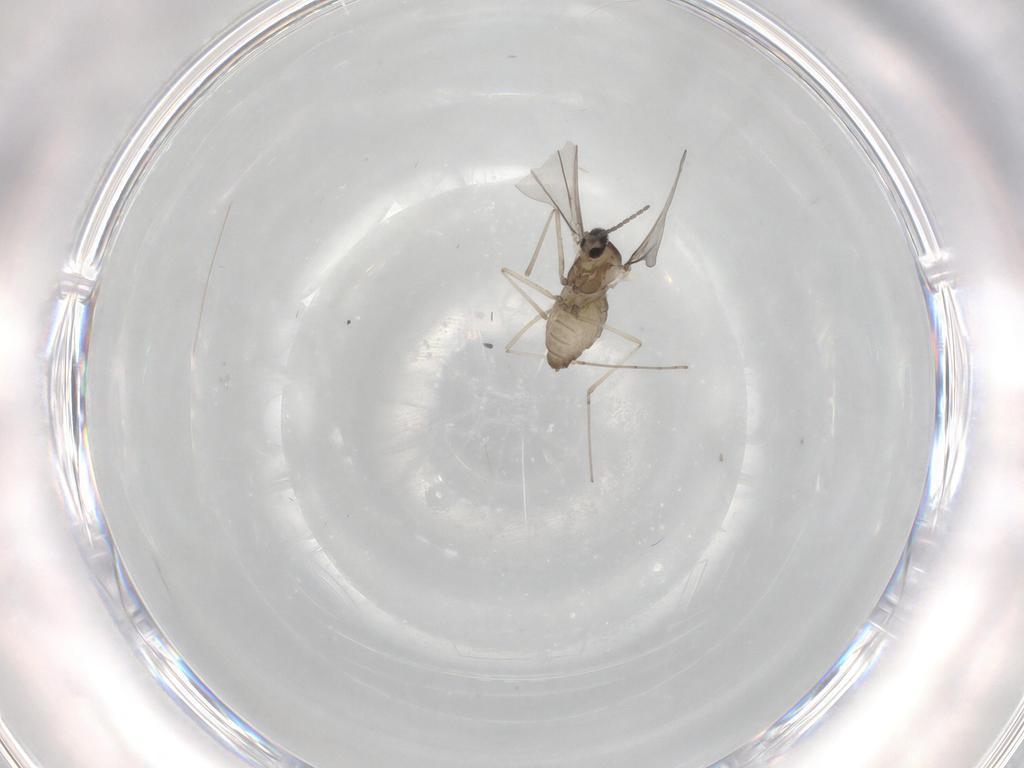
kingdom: Animalia
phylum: Arthropoda
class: Insecta
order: Diptera
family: Cecidomyiidae
